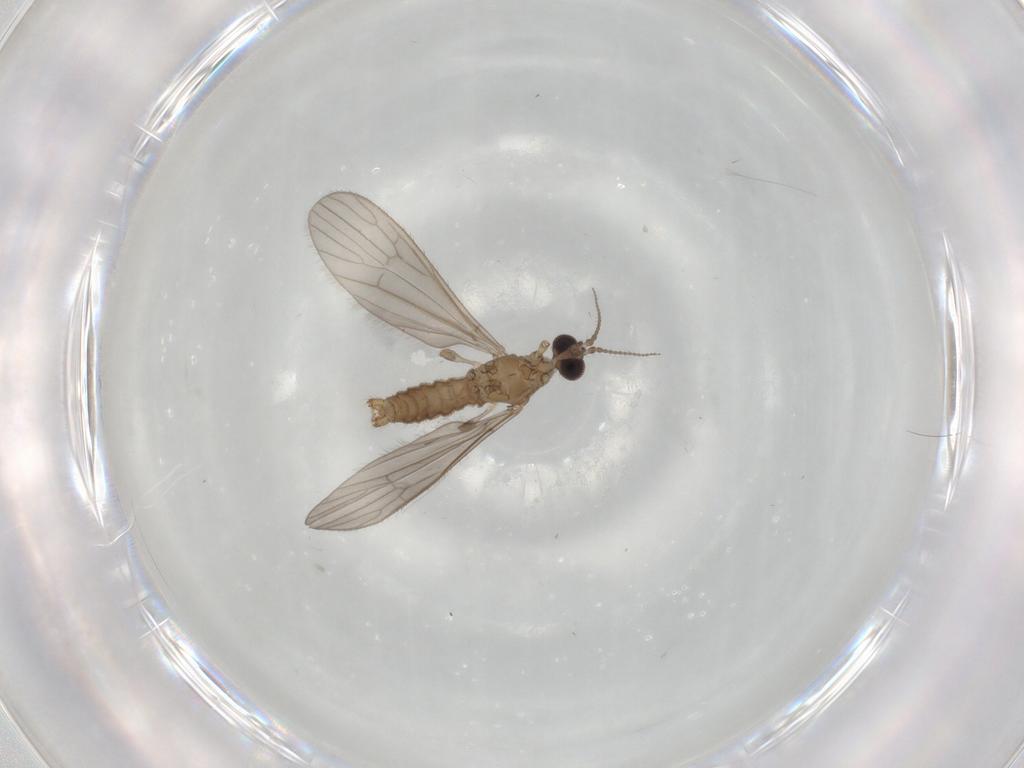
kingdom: Animalia
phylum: Arthropoda
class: Insecta
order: Diptera
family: Limoniidae
